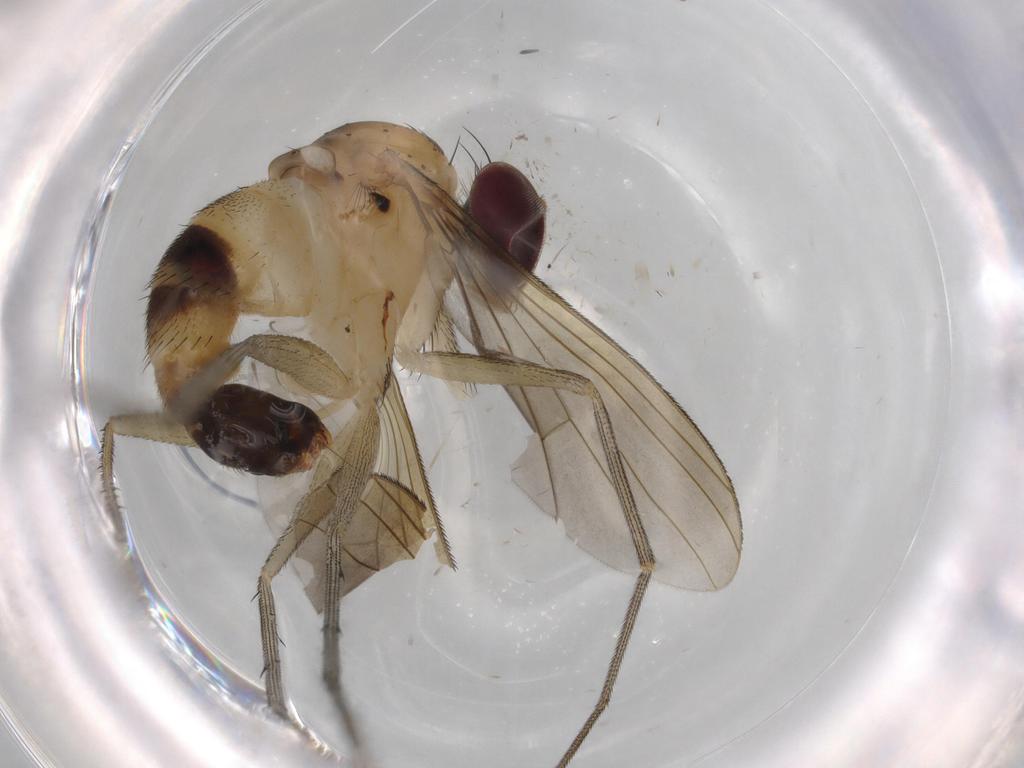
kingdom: Animalia
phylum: Arthropoda
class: Insecta
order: Diptera
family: Dolichopodidae
